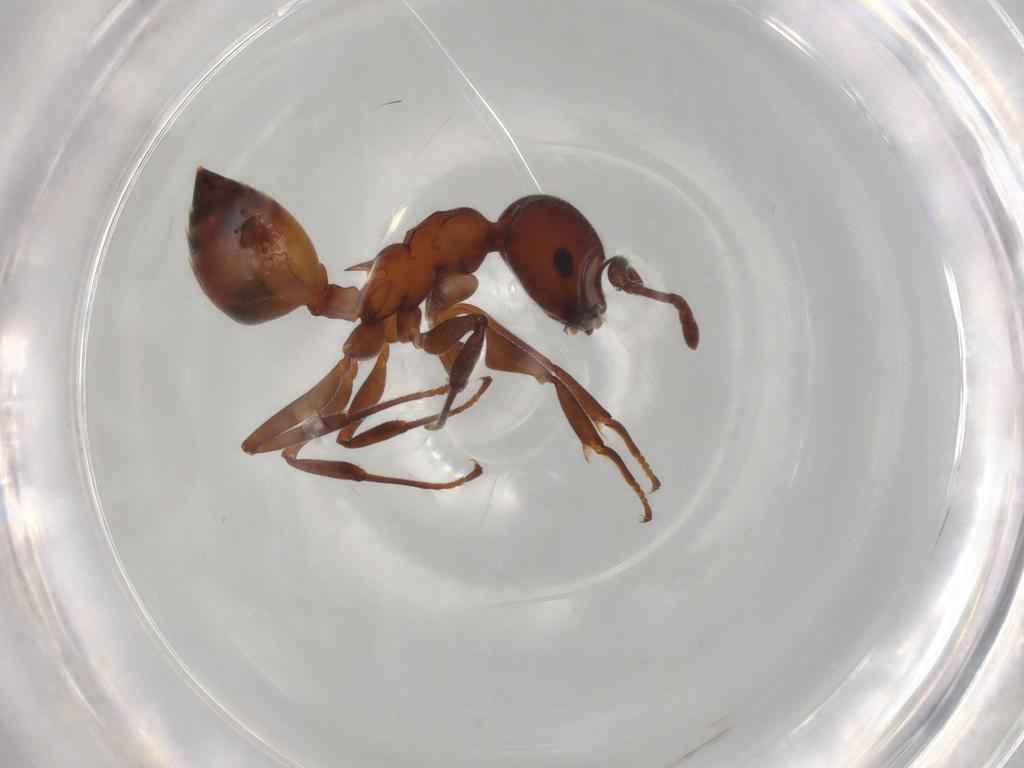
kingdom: Animalia
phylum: Arthropoda
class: Insecta
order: Hymenoptera
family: Formicidae
